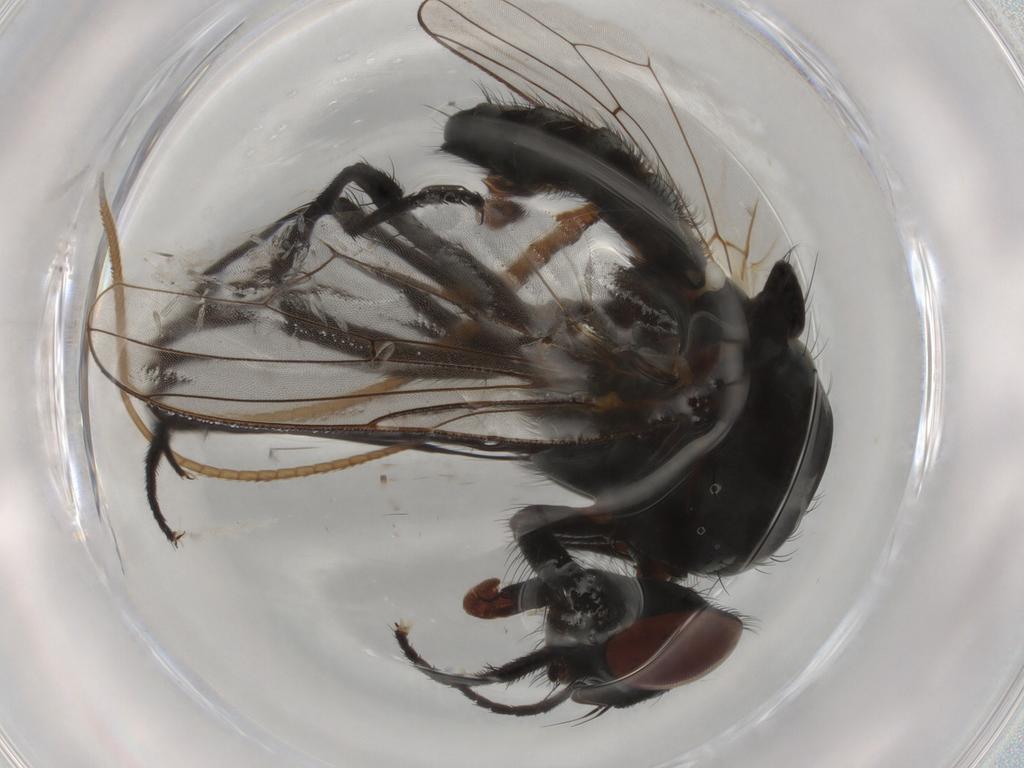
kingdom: Animalia
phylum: Arthropoda
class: Insecta
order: Diptera
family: Anthomyiidae
